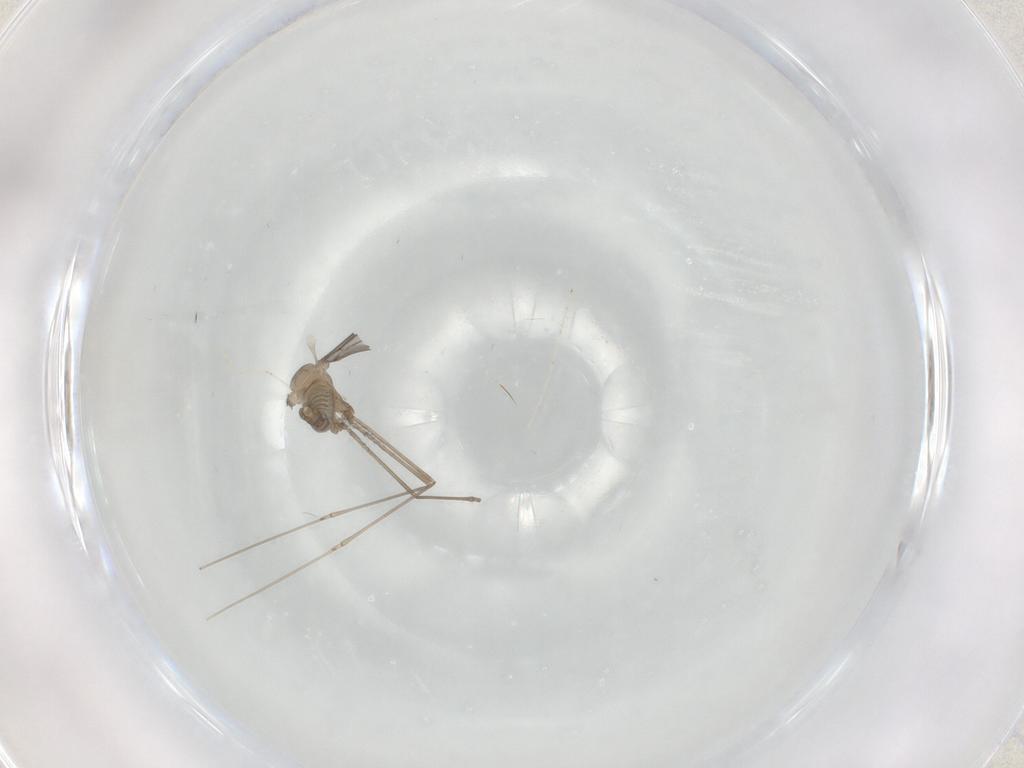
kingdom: Animalia
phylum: Arthropoda
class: Insecta
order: Diptera
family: Cecidomyiidae
